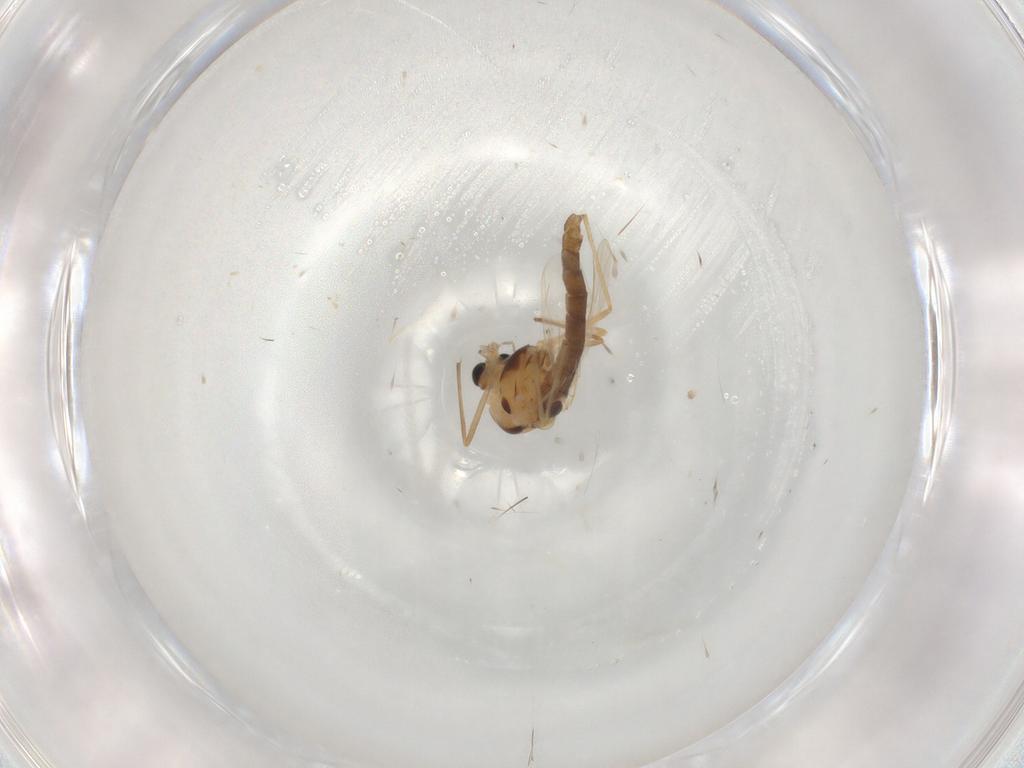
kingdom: Animalia
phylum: Arthropoda
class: Insecta
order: Diptera
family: Chironomidae
